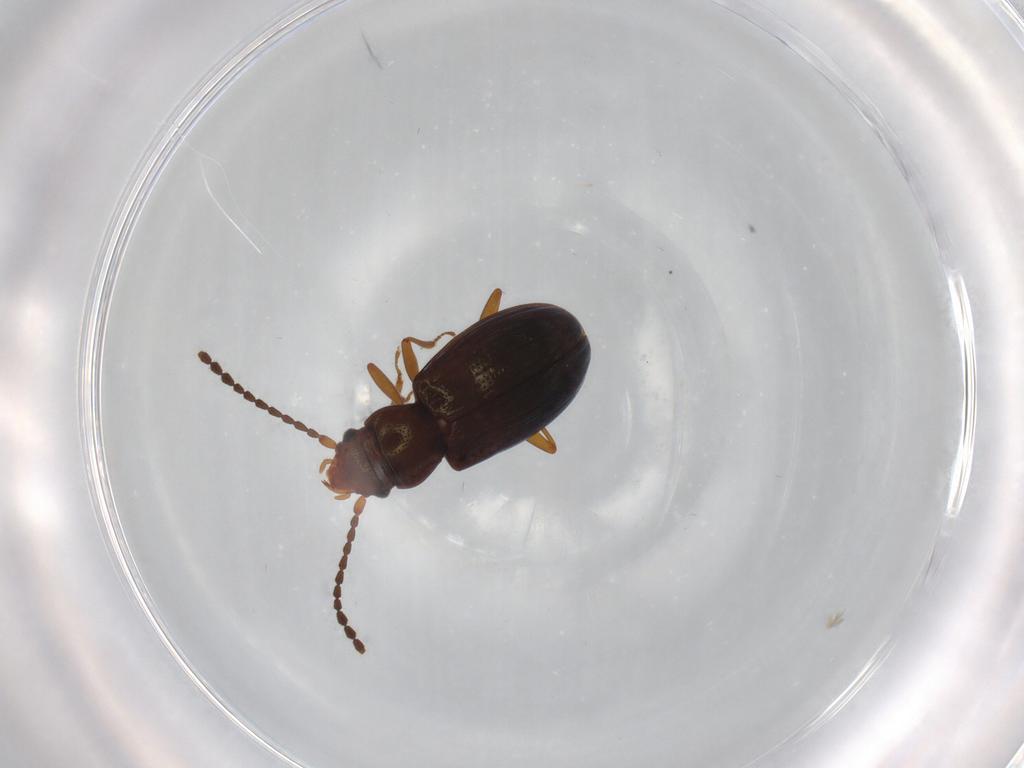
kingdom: Animalia
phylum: Arthropoda
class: Insecta
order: Coleoptera
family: Laemophloeidae
